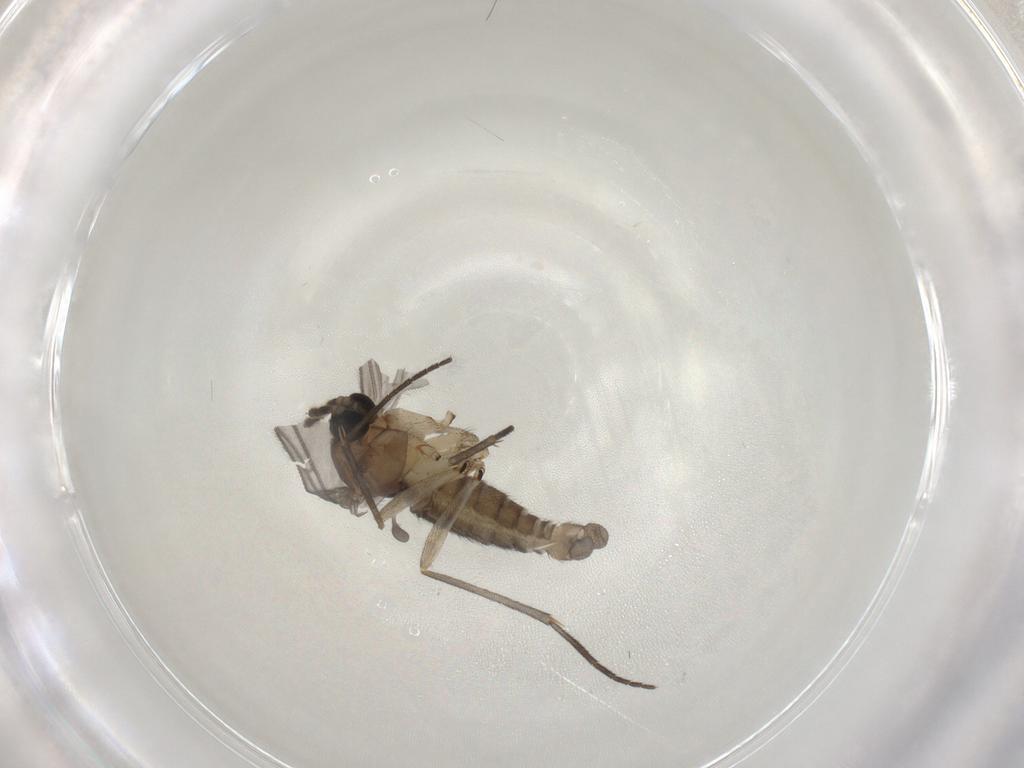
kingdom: Animalia
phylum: Arthropoda
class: Insecta
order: Diptera
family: Sciaridae
